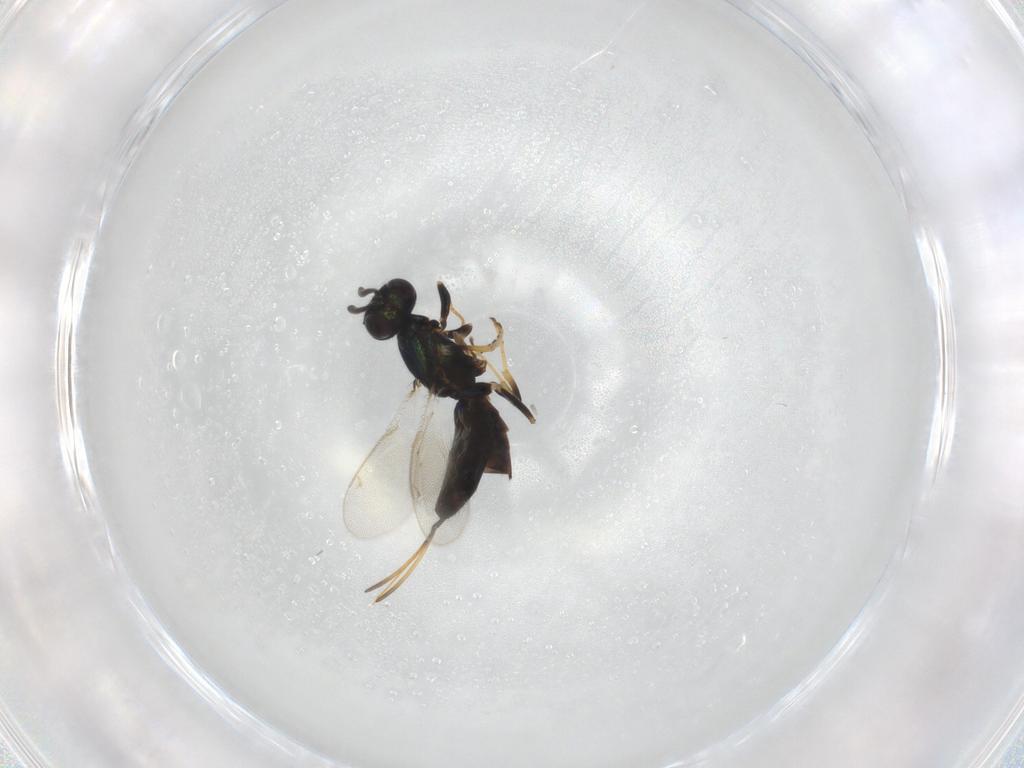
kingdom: Animalia
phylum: Arthropoda
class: Insecta
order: Hymenoptera
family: Eupelmidae
